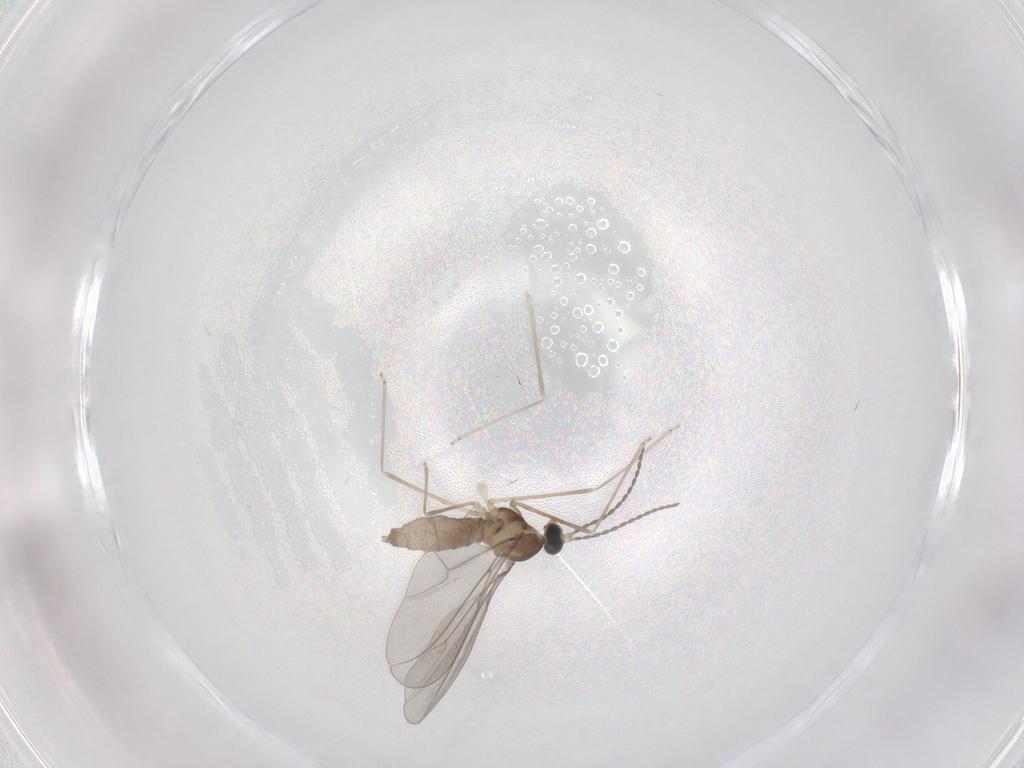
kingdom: Animalia
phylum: Arthropoda
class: Insecta
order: Diptera
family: Cecidomyiidae
